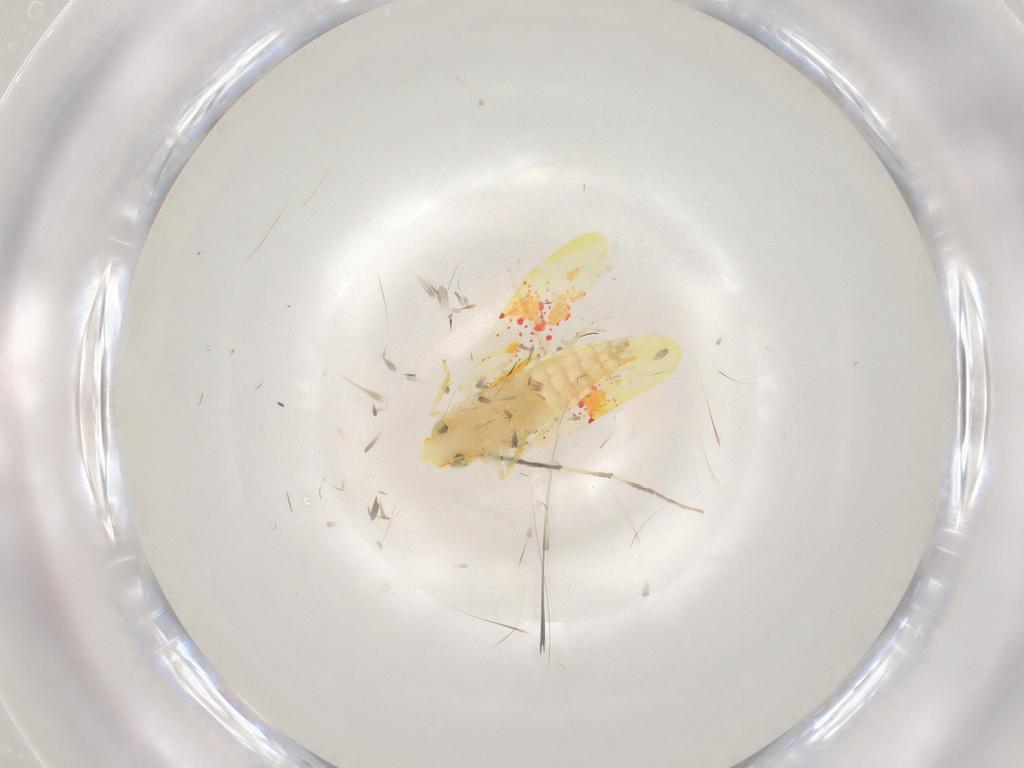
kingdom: Animalia
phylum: Arthropoda
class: Insecta
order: Hemiptera
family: Cicadellidae
